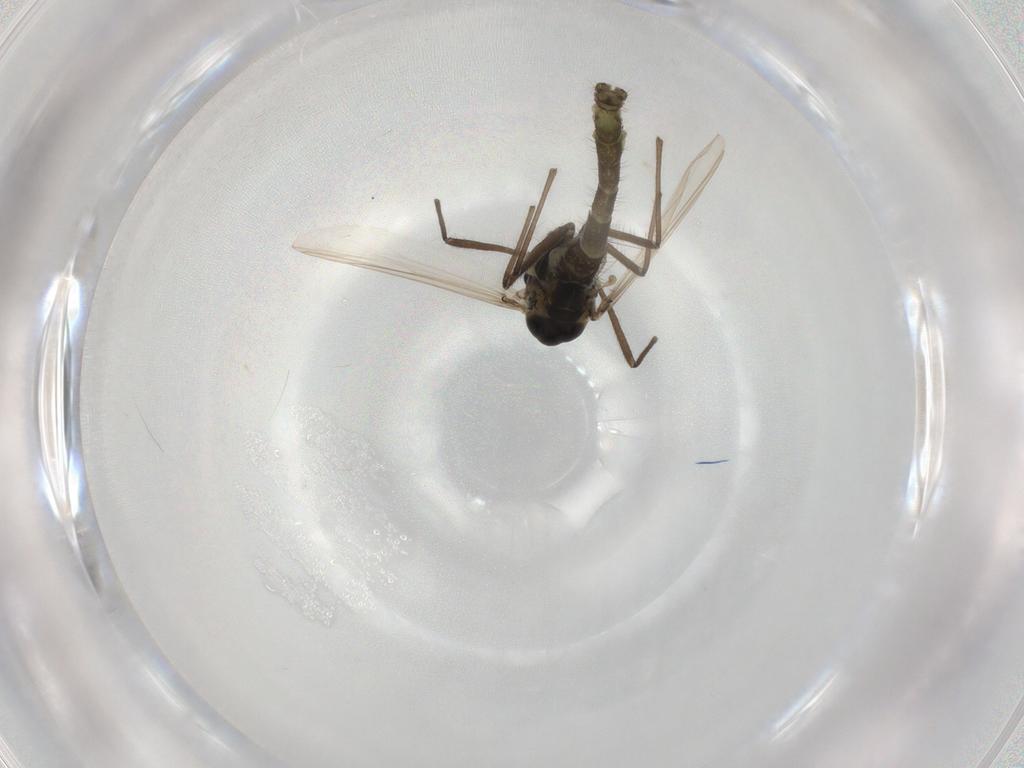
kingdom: Animalia
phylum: Arthropoda
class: Insecta
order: Diptera
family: Chironomidae
